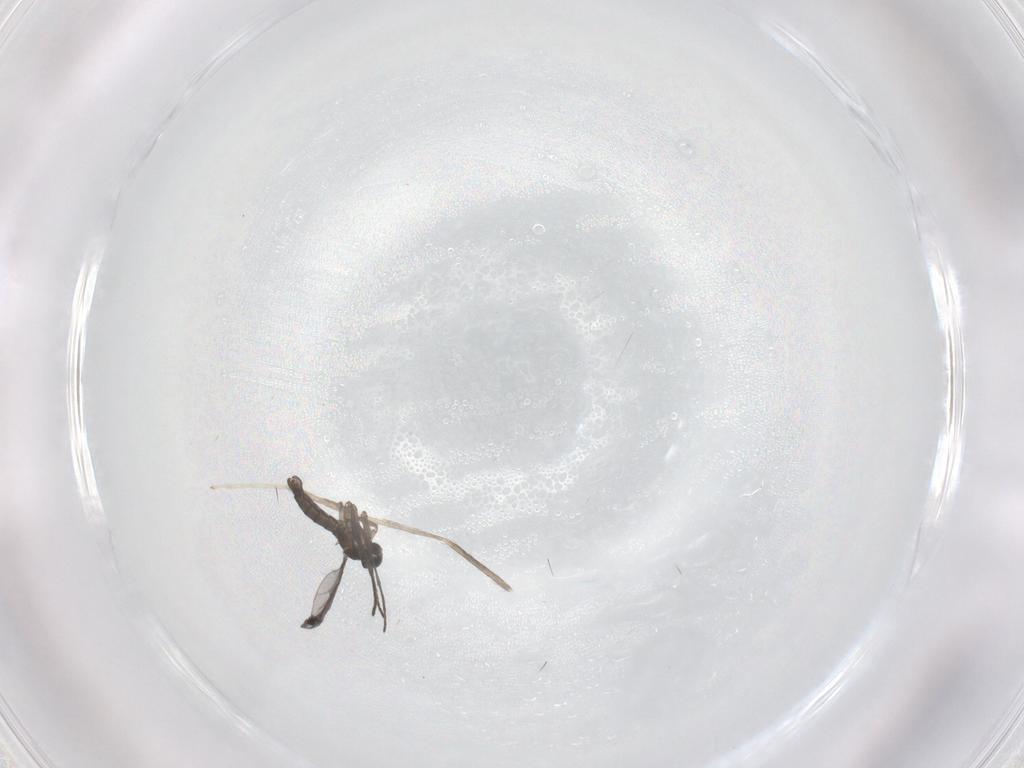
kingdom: Animalia
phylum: Arthropoda
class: Insecta
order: Diptera
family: Cecidomyiidae
